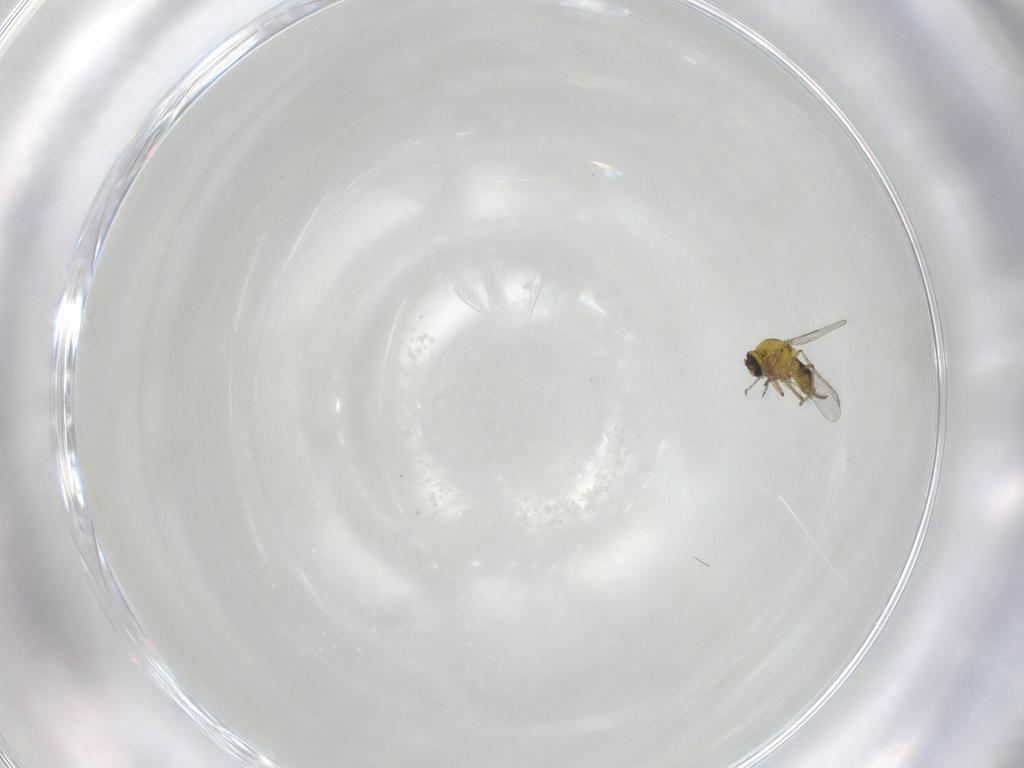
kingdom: Animalia
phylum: Arthropoda
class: Insecta
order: Diptera
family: Ceratopogonidae
